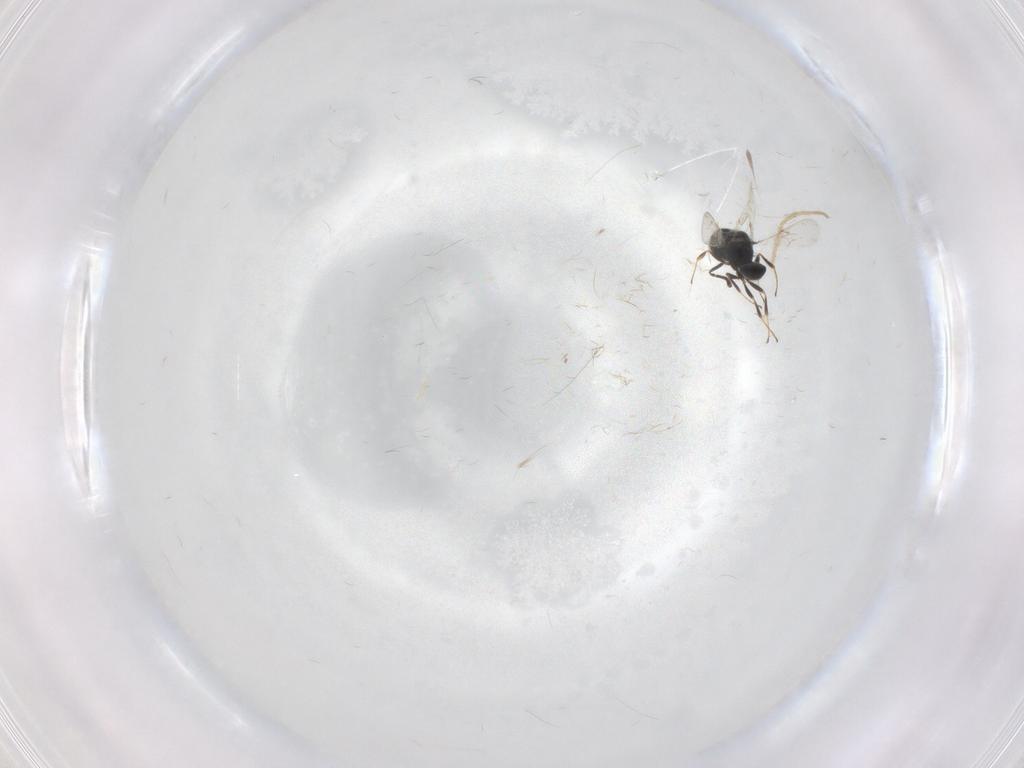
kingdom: Animalia
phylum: Arthropoda
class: Insecta
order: Hymenoptera
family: Scelionidae
